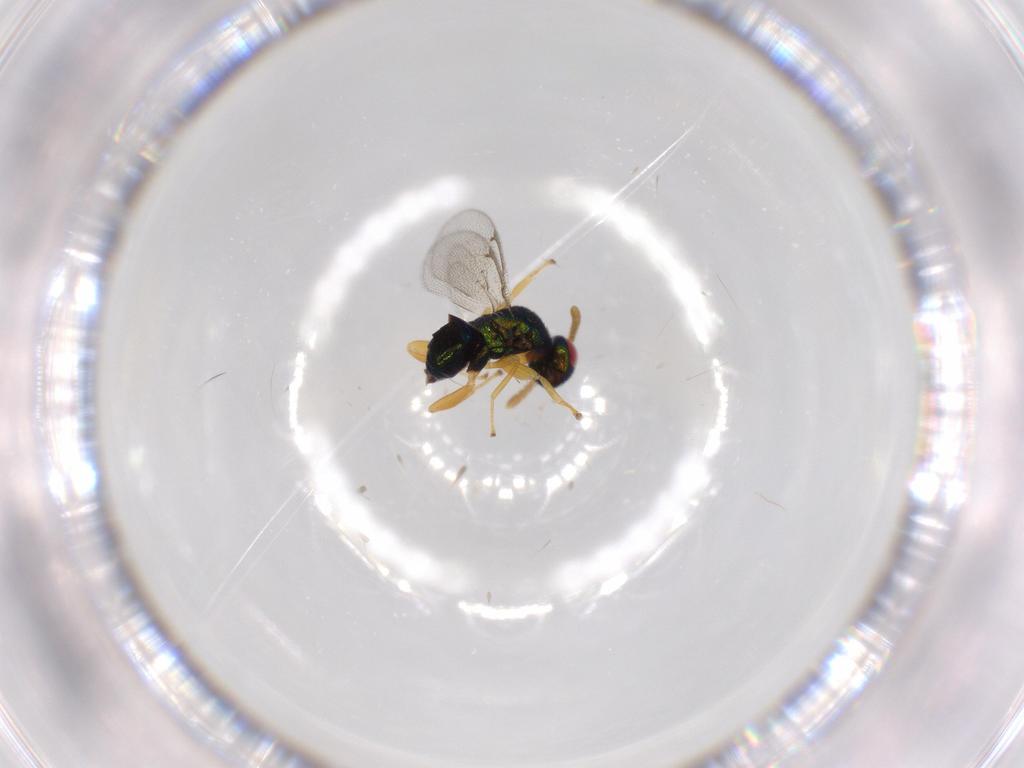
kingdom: Animalia
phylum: Arthropoda
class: Insecta
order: Hymenoptera
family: Torymidae
